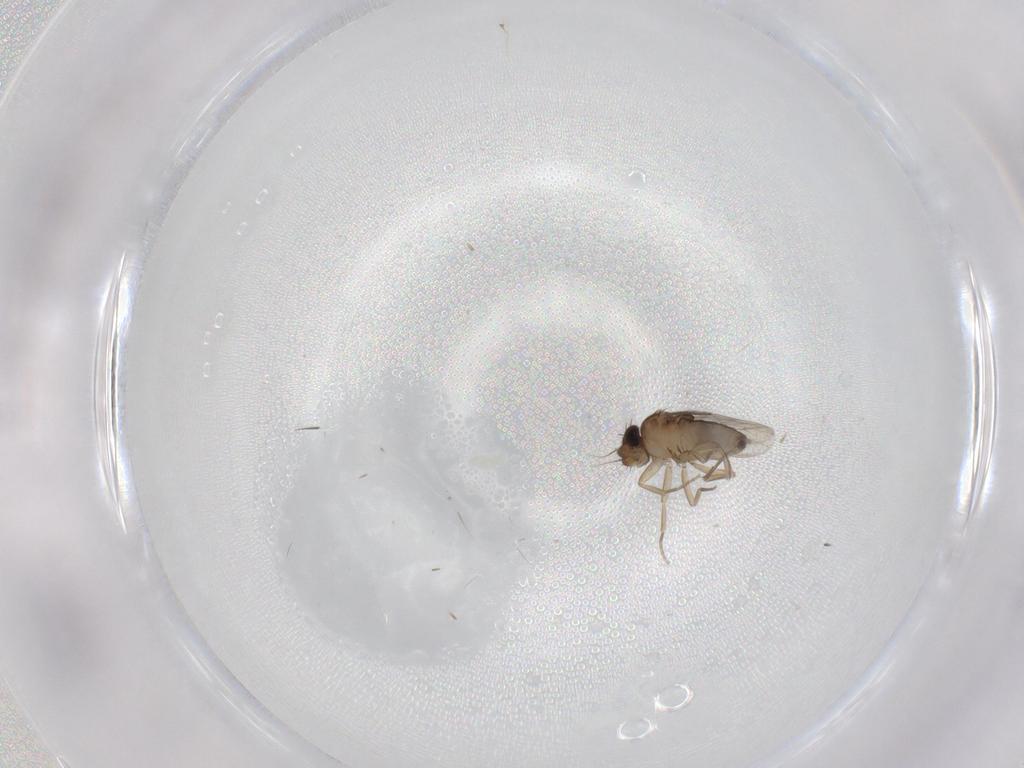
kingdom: Animalia
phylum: Arthropoda
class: Insecta
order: Diptera
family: Phoridae
